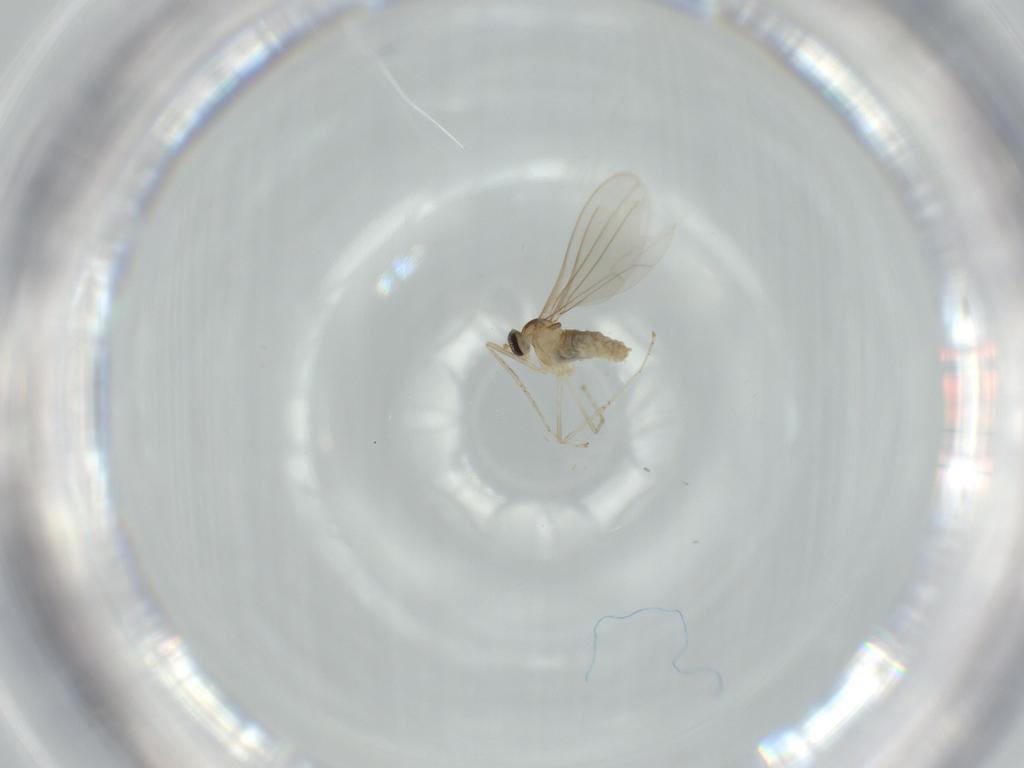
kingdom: Animalia
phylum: Arthropoda
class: Insecta
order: Diptera
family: Cecidomyiidae
